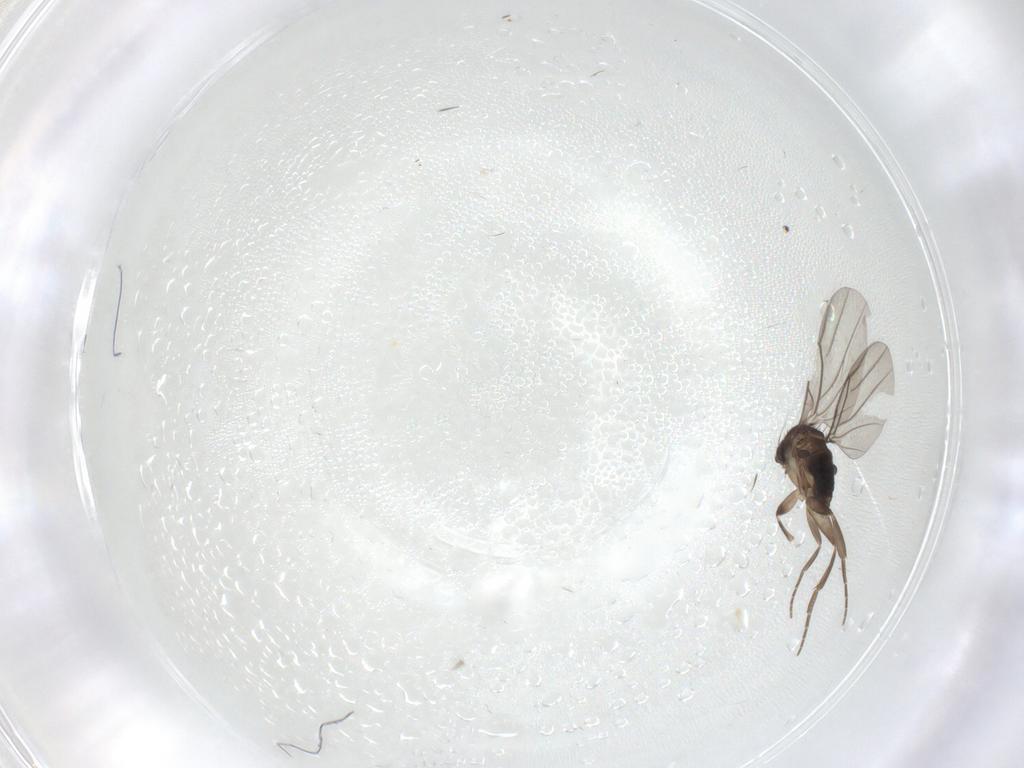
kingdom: Animalia
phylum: Arthropoda
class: Insecta
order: Diptera
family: Phoridae
